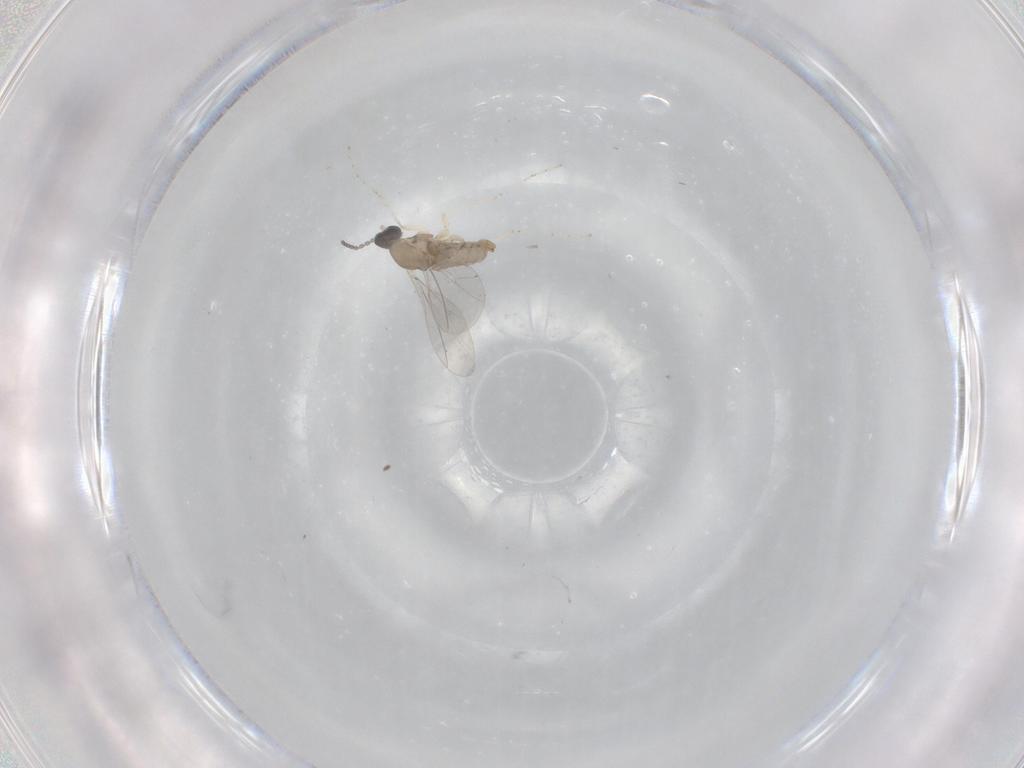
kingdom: Animalia
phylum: Arthropoda
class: Insecta
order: Diptera
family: Cecidomyiidae
